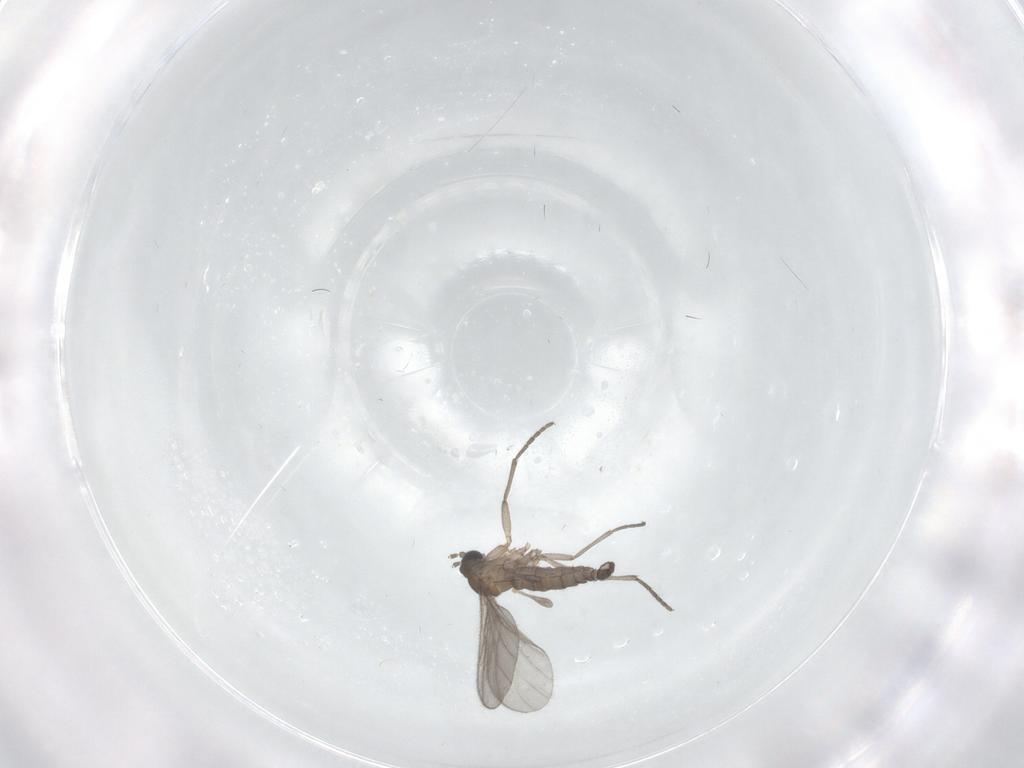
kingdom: Animalia
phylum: Arthropoda
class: Insecta
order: Diptera
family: Sciaridae
